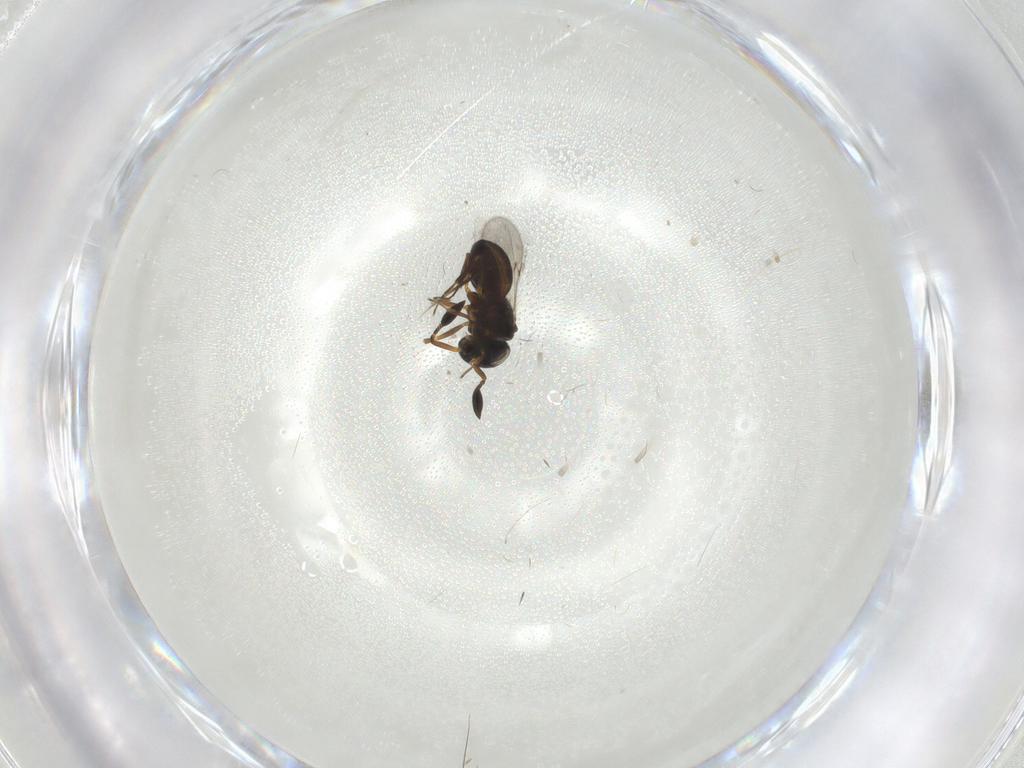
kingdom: Animalia
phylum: Arthropoda
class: Insecta
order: Hymenoptera
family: Scelionidae
